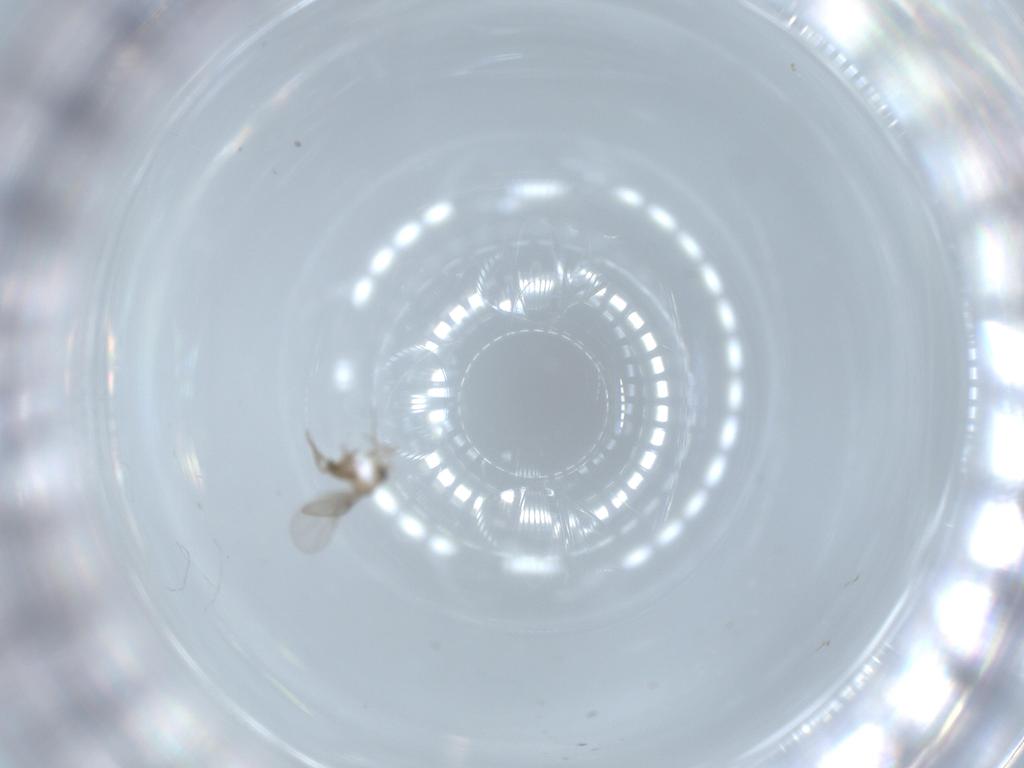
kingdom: Animalia
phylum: Arthropoda
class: Insecta
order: Diptera
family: Phoridae
